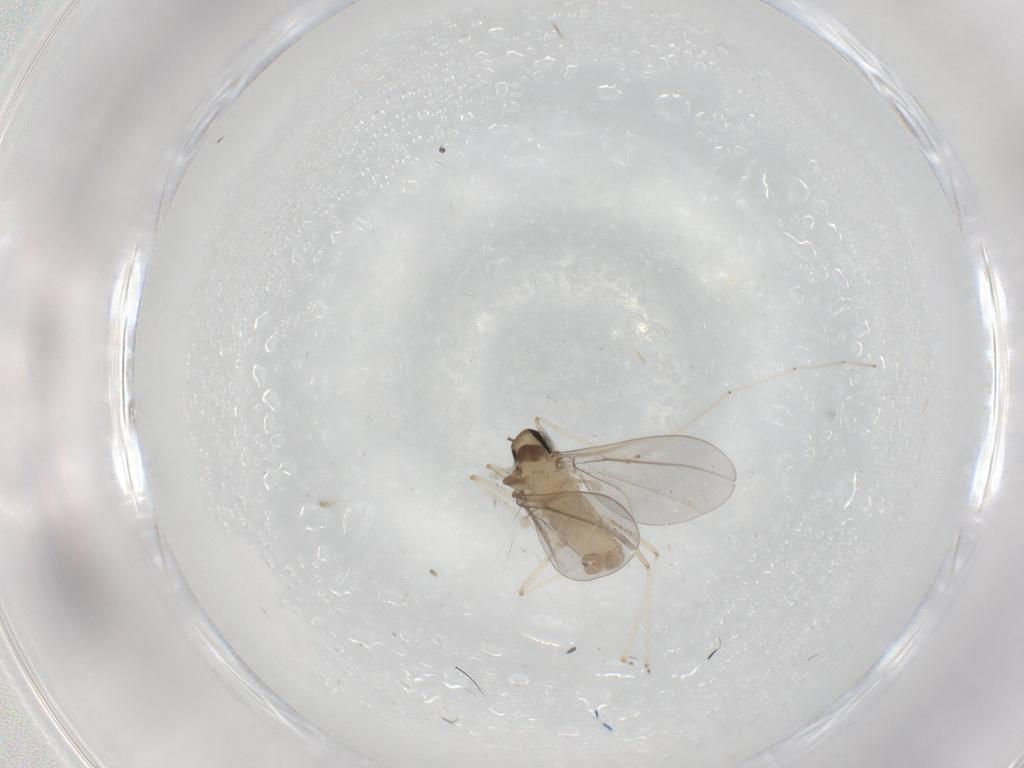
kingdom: Animalia
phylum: Arthropoda
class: Insecta
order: Diptera
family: Cecidomyiidae
